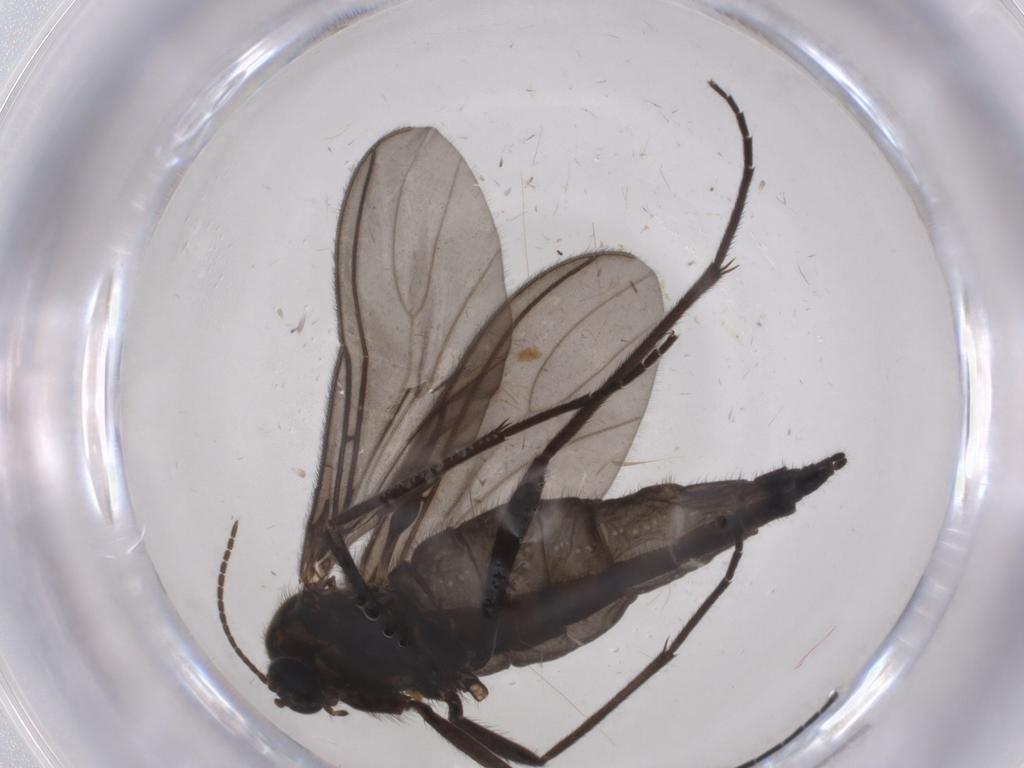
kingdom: Animalia
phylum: Arthropoda
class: Insecta
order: Diptera
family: Sciaridae
